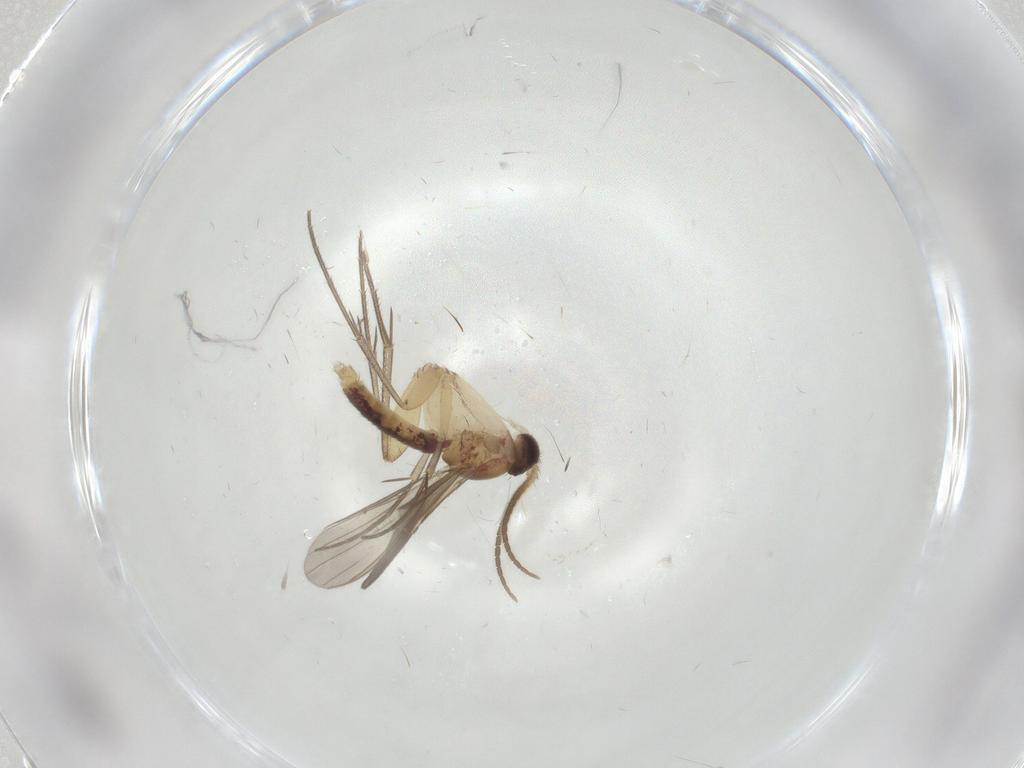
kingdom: Animalia
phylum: Arthropoda
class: Insecta
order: Diptera
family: Mycetophilidae
